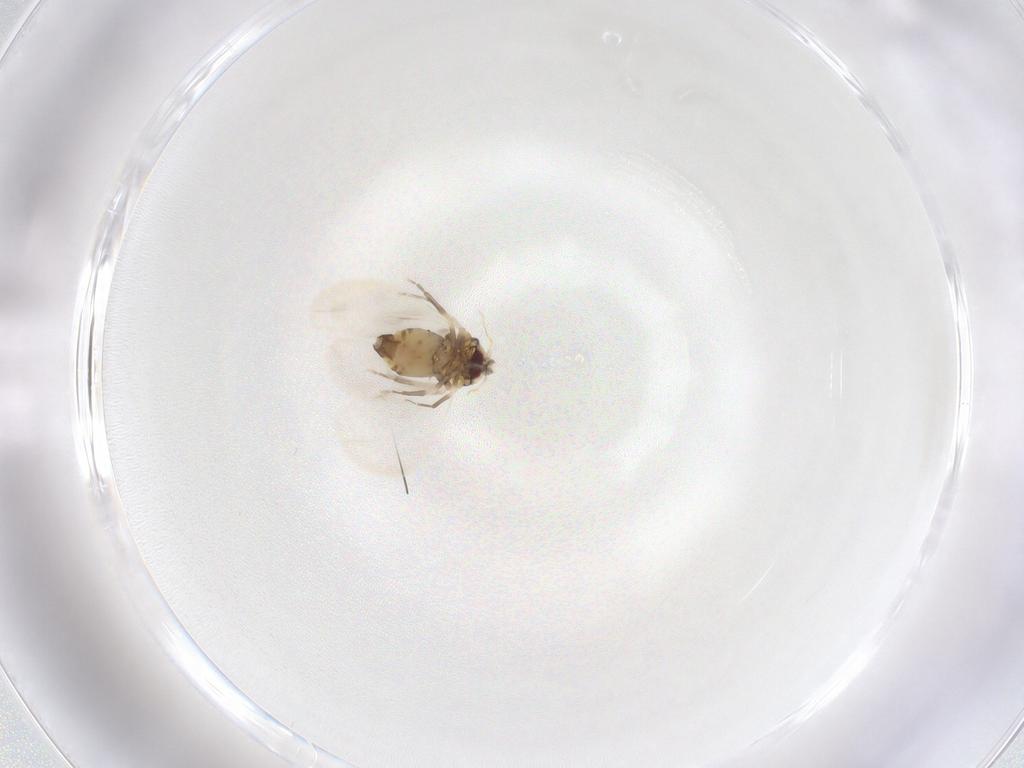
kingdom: Animalia
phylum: Arthropoda
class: Insecta
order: Hemiptera
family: Aleyrodidae
